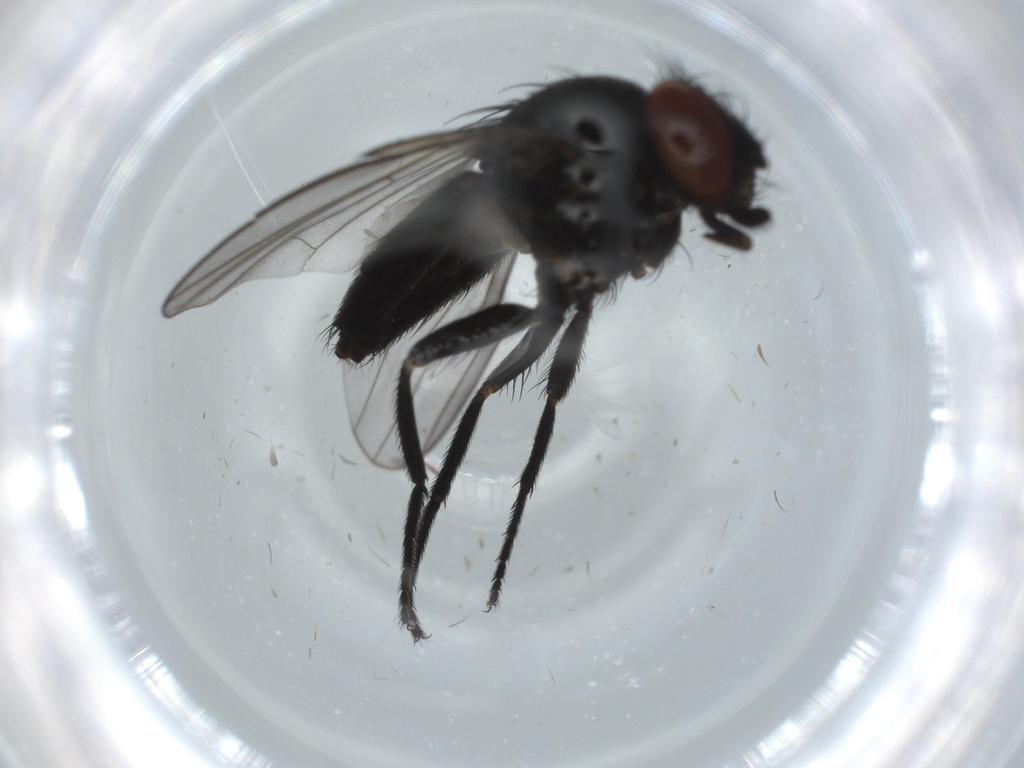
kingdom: Animalia
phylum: Arthropoda
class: Insecta
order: Diptera
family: Milichiidae
